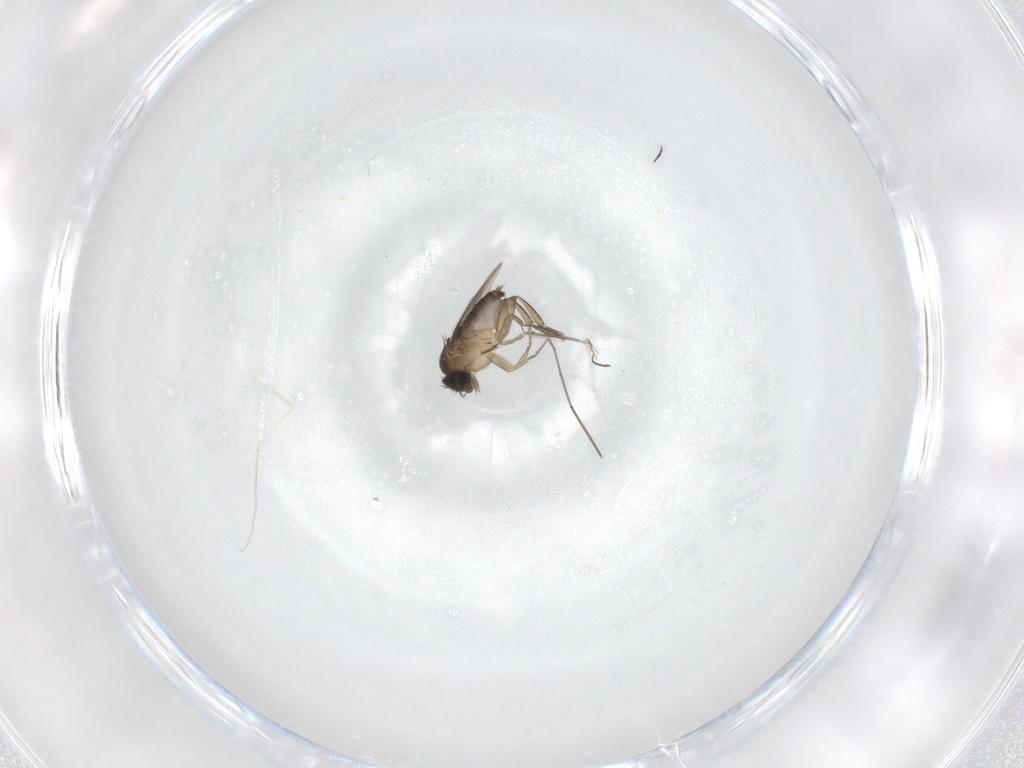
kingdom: Animalia
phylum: Arthropoda
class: Insecta
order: Diptera
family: Phoridae
